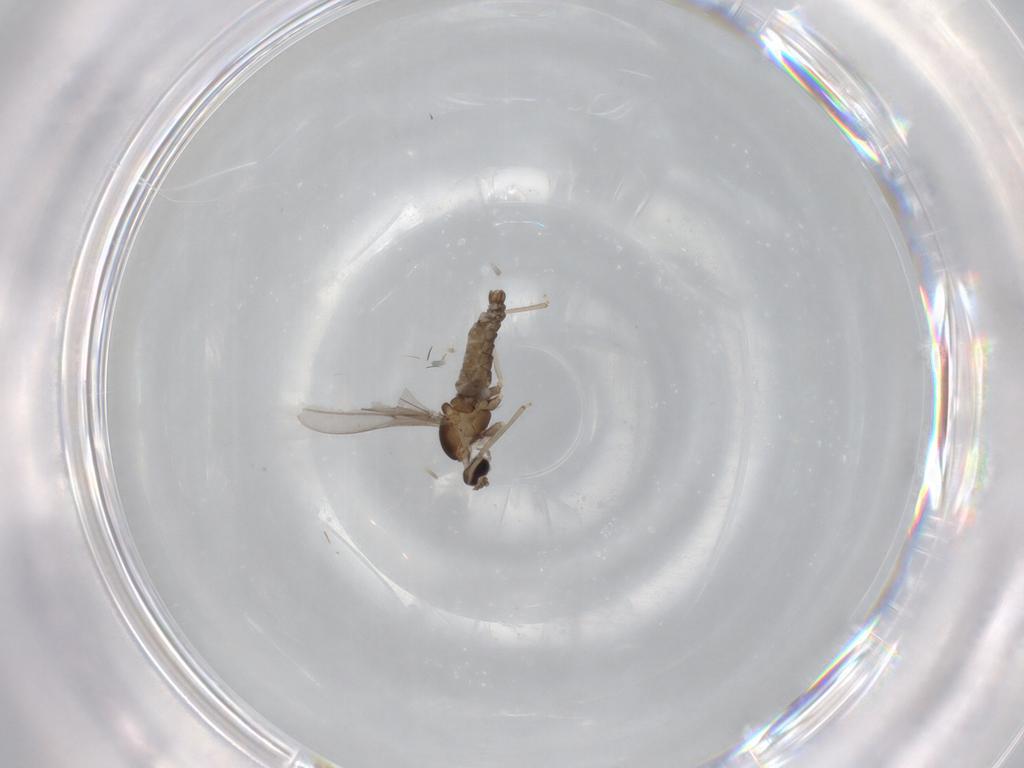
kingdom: Animalia
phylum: Arthropoda
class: Insecta
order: Diptera
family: Cecidomyiidae
